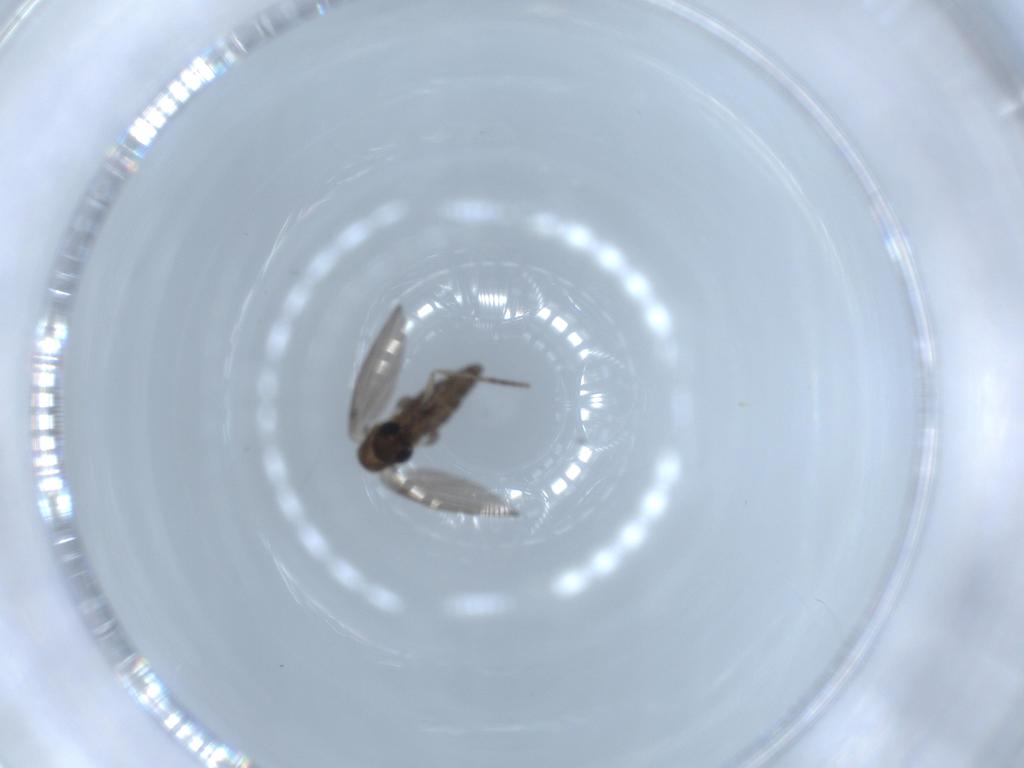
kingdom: Animalia
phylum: Arthropoda
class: Insecta
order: Diptera
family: Psychodidae
